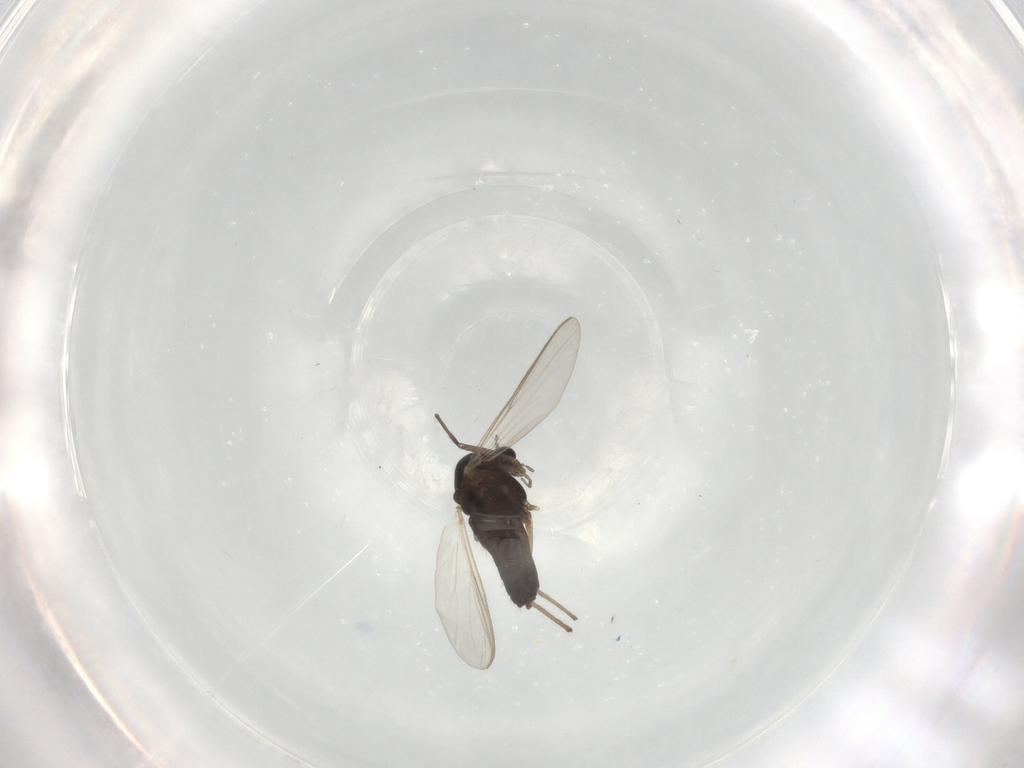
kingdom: Animalia
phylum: Arthropoda
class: Insecta
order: Diptera
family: Chironomidae
